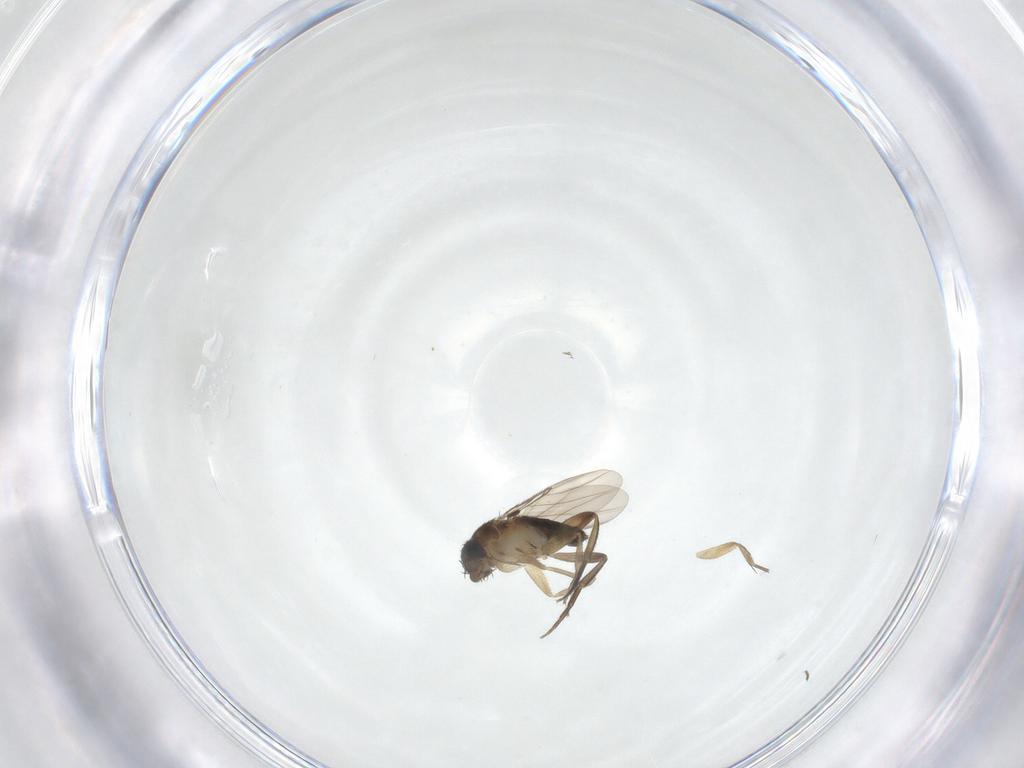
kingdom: Animalia
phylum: Arthropoda
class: Insecta
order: Diptera
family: Phoridae
